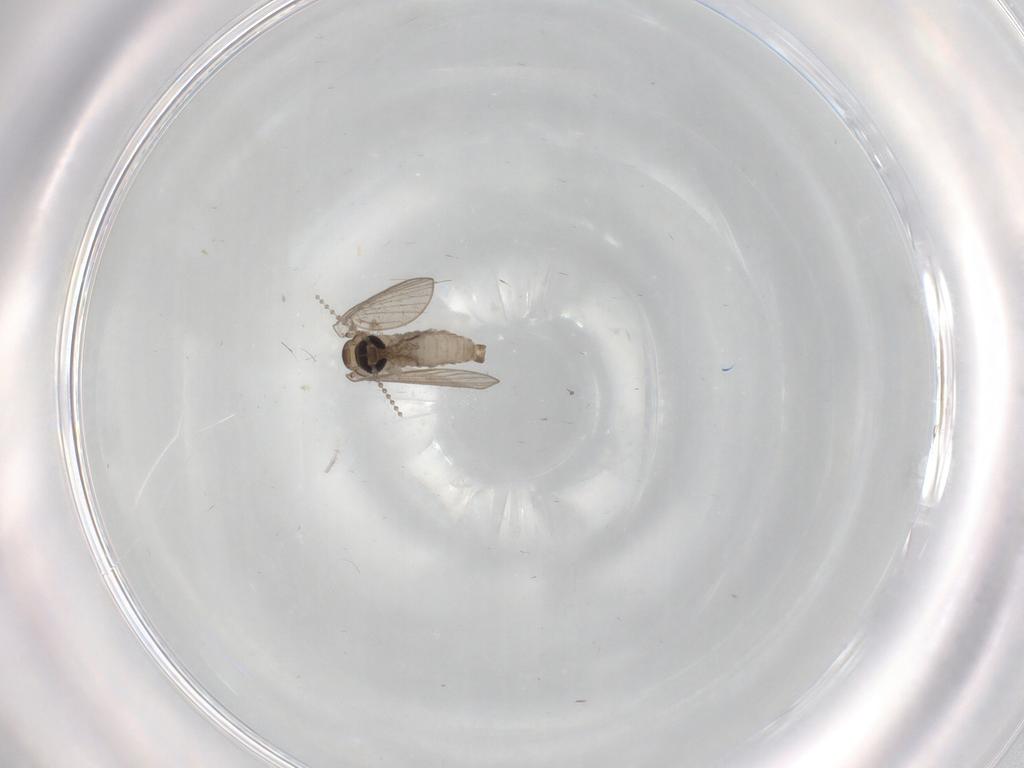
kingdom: Animalia
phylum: Arthropoda
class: Insecta
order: Diptera
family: Psychodidae
